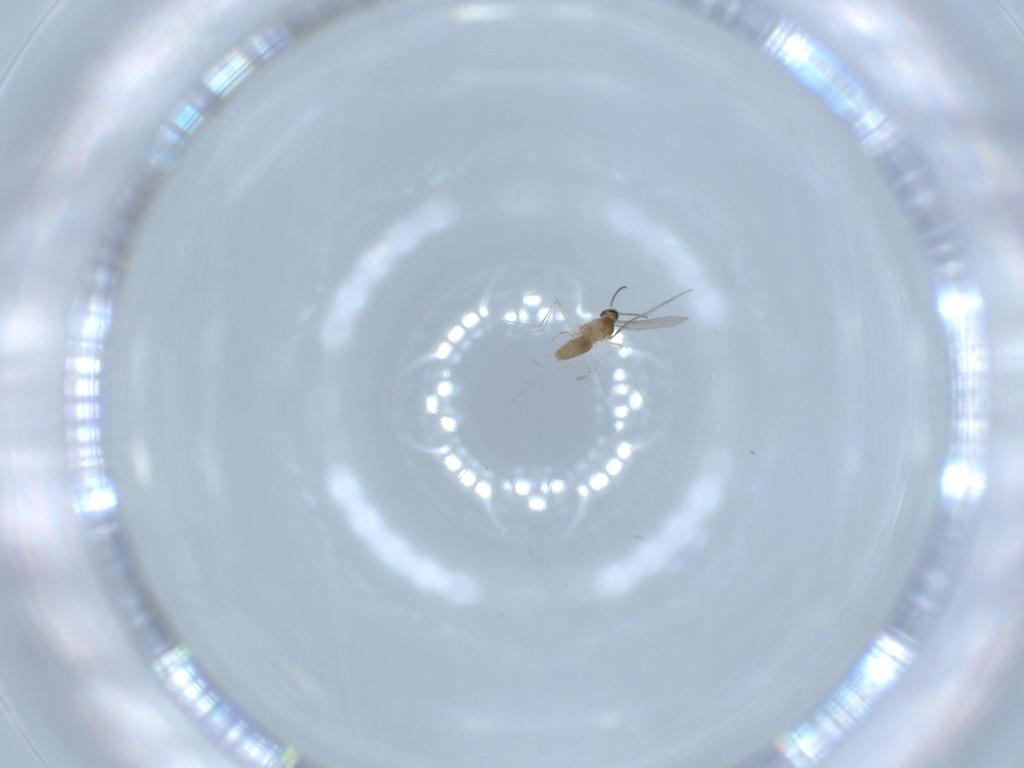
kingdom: Animalia
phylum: Arthropoda
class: Insecta
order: Diptera
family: Cecidomyiidae
